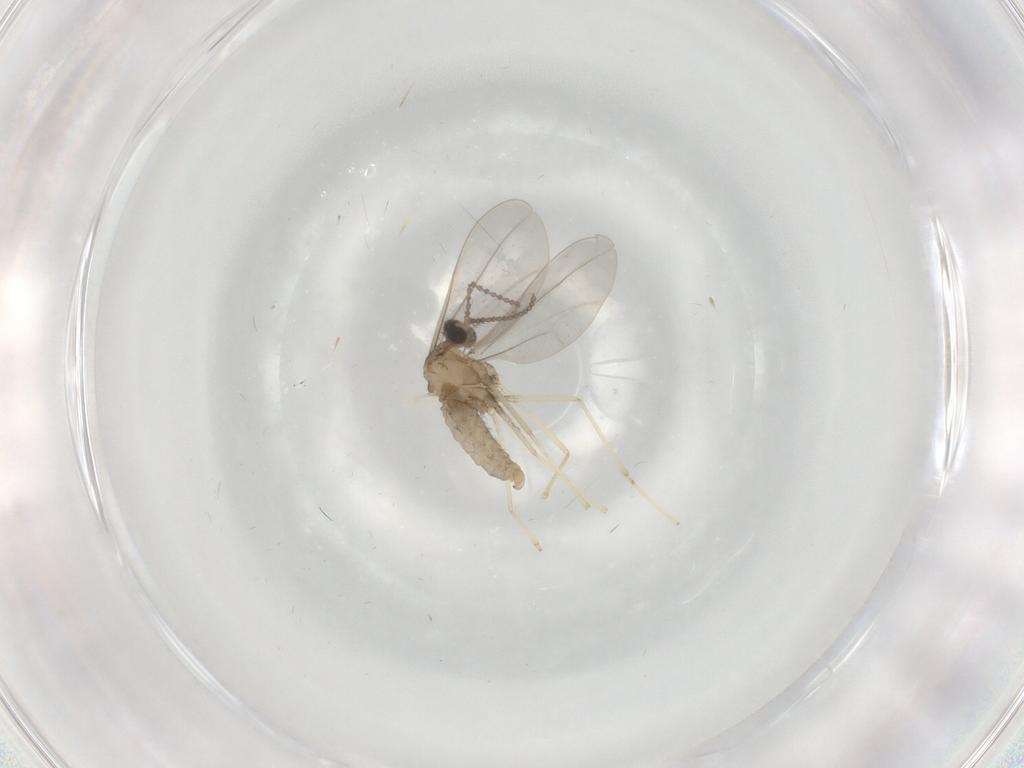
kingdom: Animalia
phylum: Arthropoda
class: Insecta
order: Diptera
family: Cecidomyiidae
